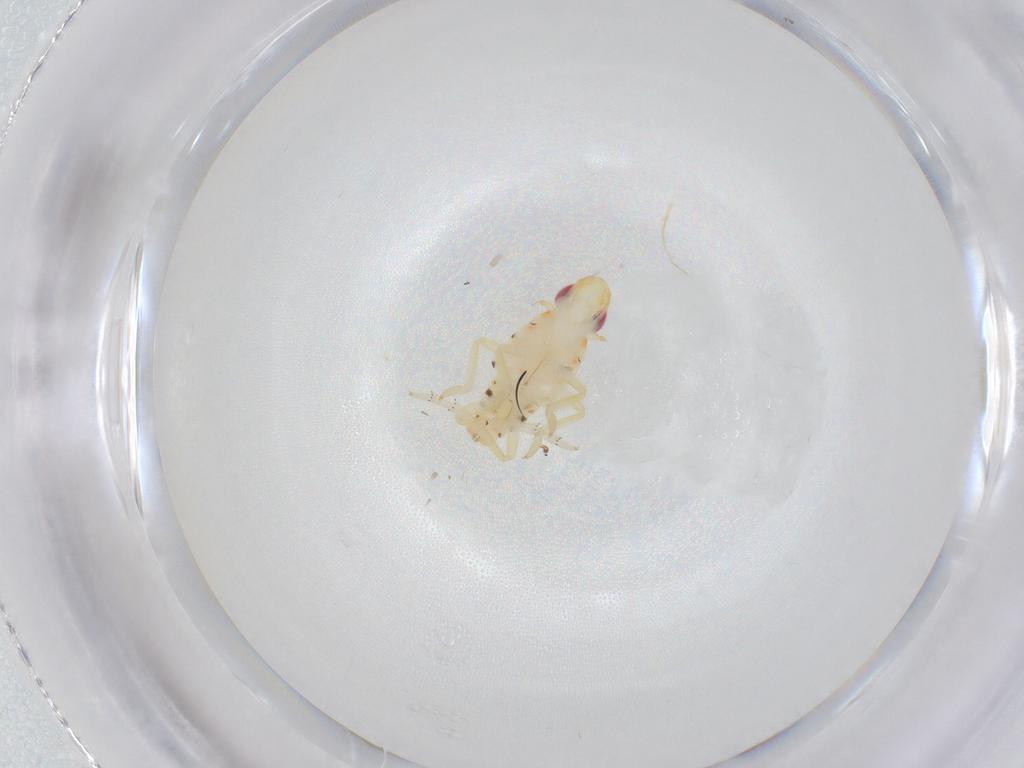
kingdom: Animalia
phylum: Arthropoda
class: Insecta
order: Hemiptera
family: Tropiduchidae
